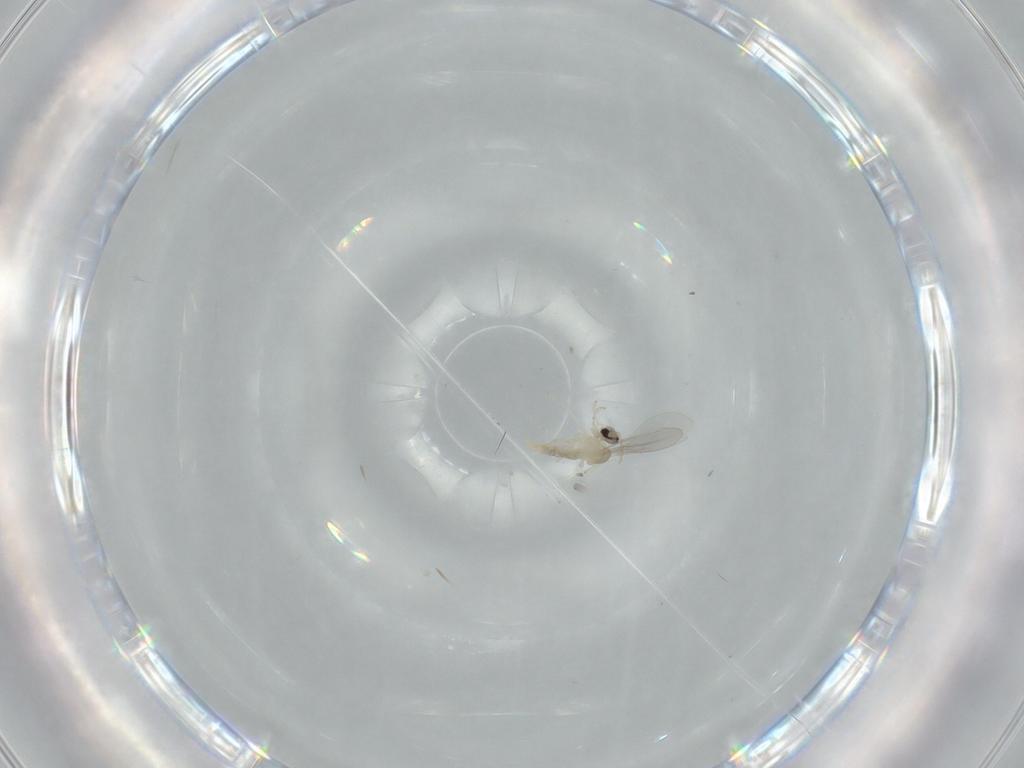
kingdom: Animalia
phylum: Arthropoda
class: Insecta
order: Diptera
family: Cecidomyiidae
